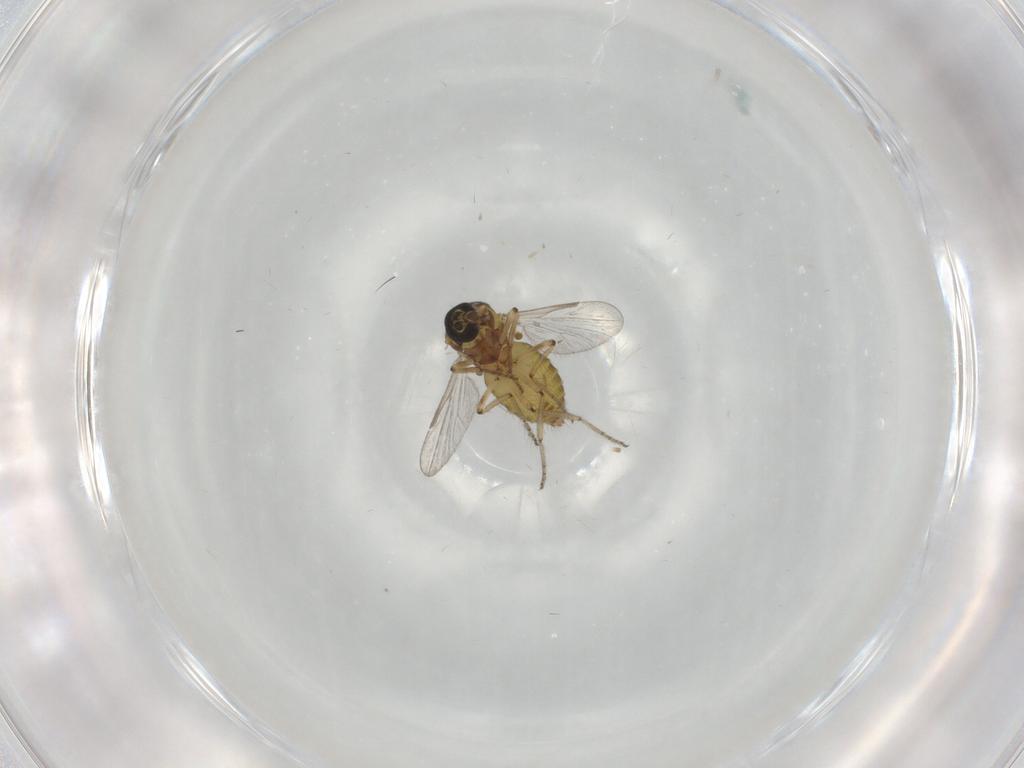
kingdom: Animalia
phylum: Arthropoda
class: Insecta
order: Diptera
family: Ceratopogonidae
